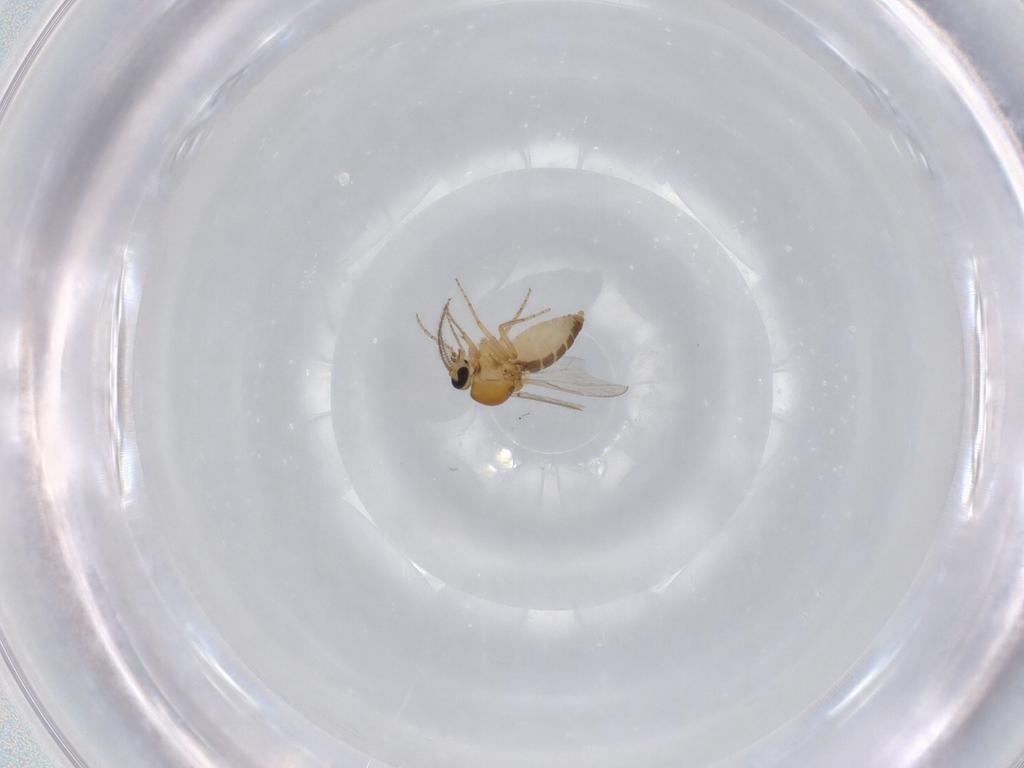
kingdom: Animalia
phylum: Arthropoda
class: Insecta
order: Diptera
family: Ceratopogonidae
